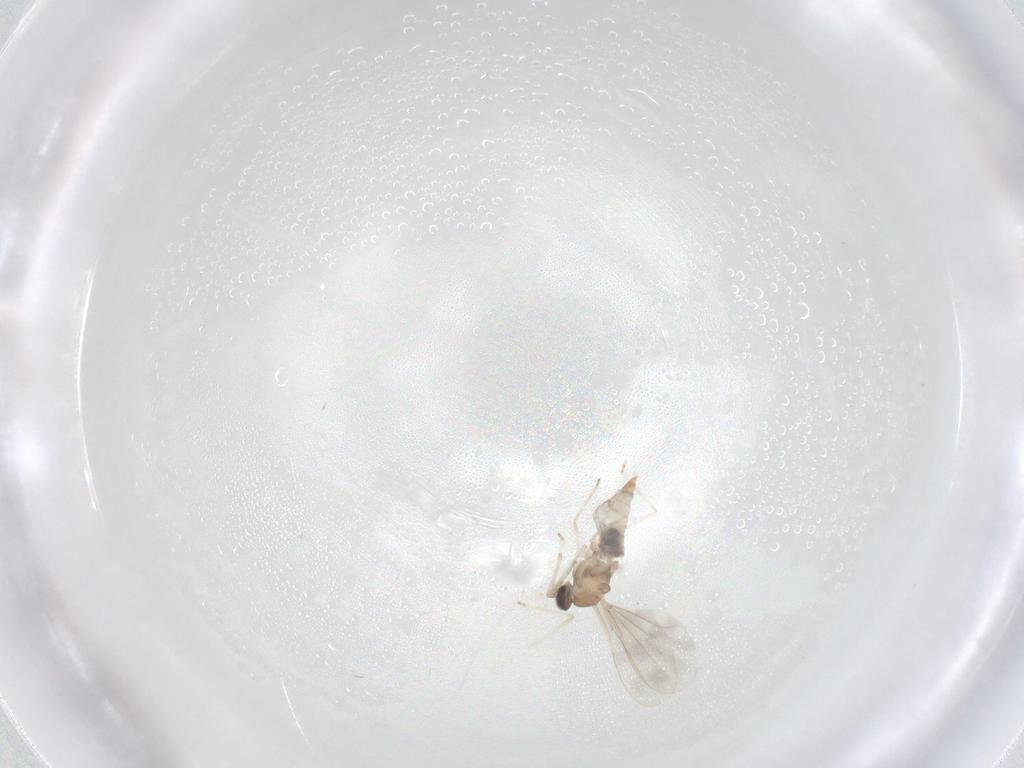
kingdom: Animalia
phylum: Arthropoda
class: Insecta
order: Diptera
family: Cecidomyiidae
